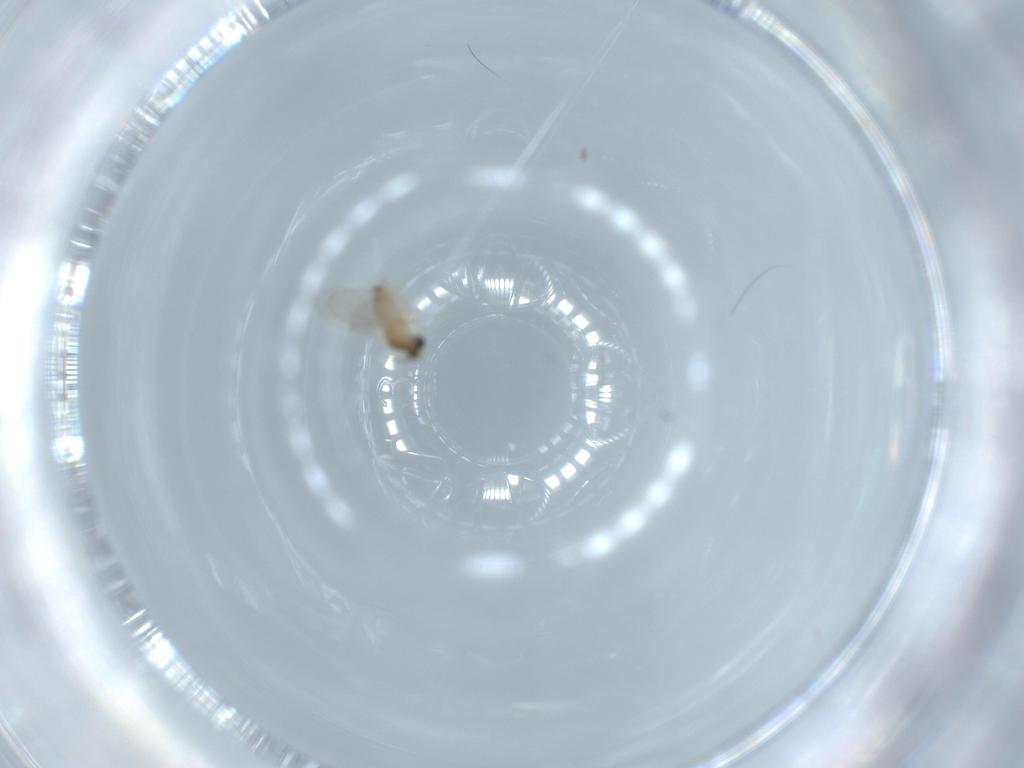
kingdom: Animalia
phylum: Arthropoda
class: Insecta
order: Diptera
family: Cecidomyiidae
